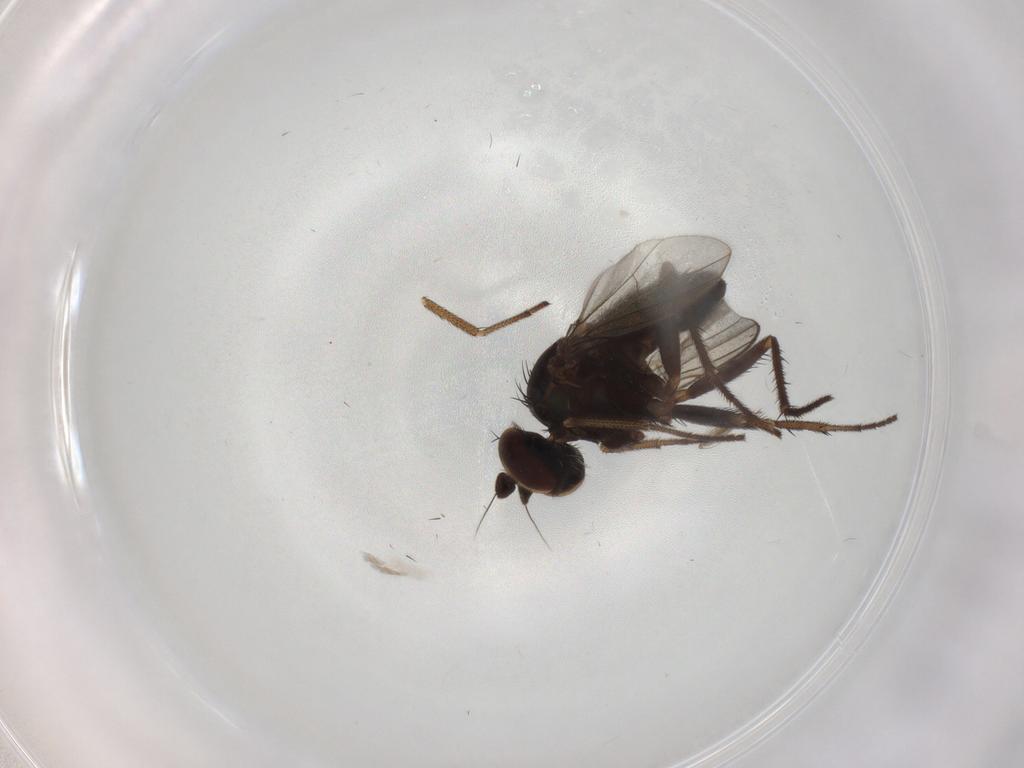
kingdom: Animalia
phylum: Arthropoda
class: Insecta
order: Diptera
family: Dolichopodidae
